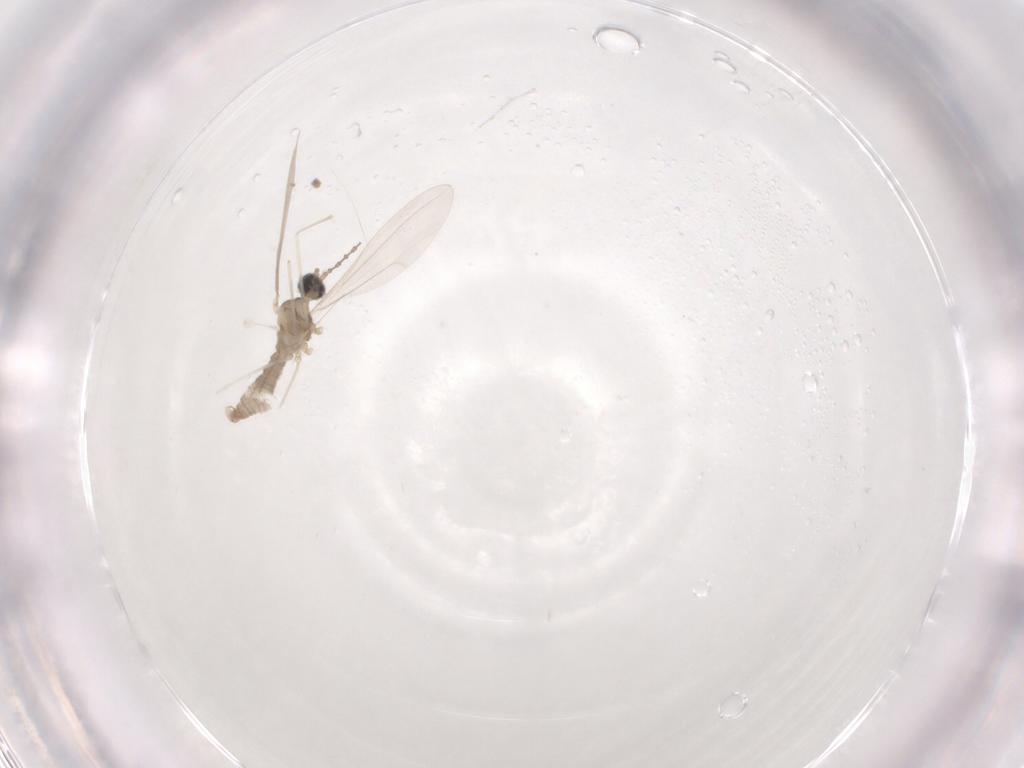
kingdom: Animalia
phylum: Arthropoda
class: Insecta
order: Diptera
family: Cecidomyiidae
